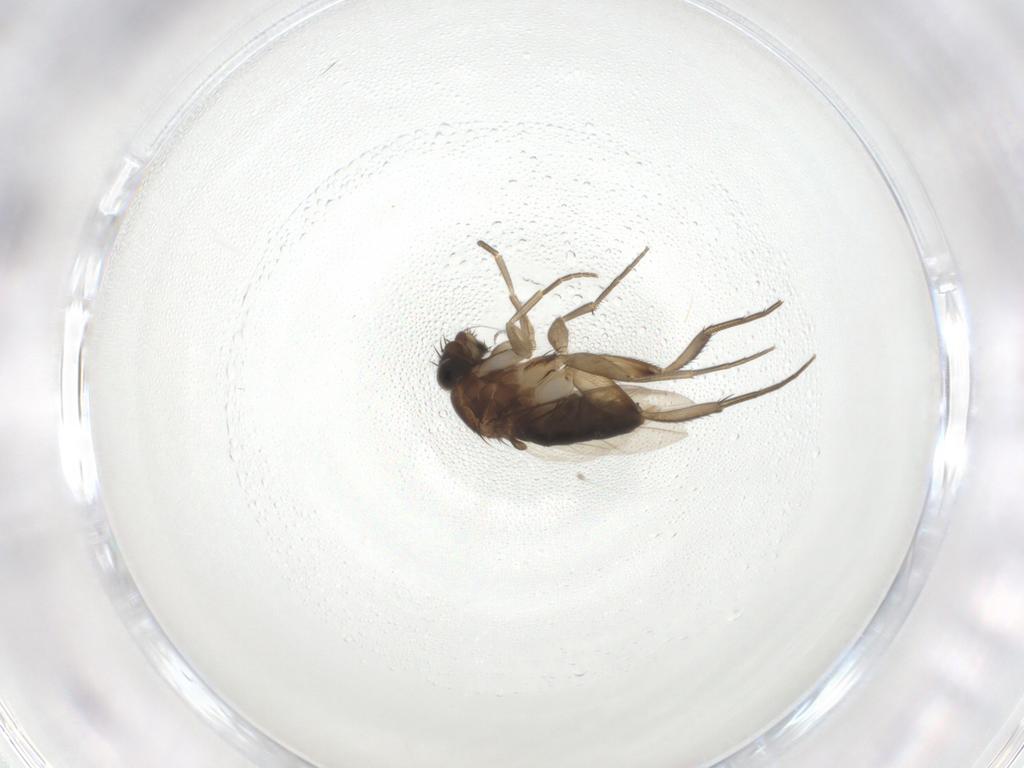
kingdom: Animalia
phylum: Arthropoda
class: Insecta
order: Diptera
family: Phoridae
